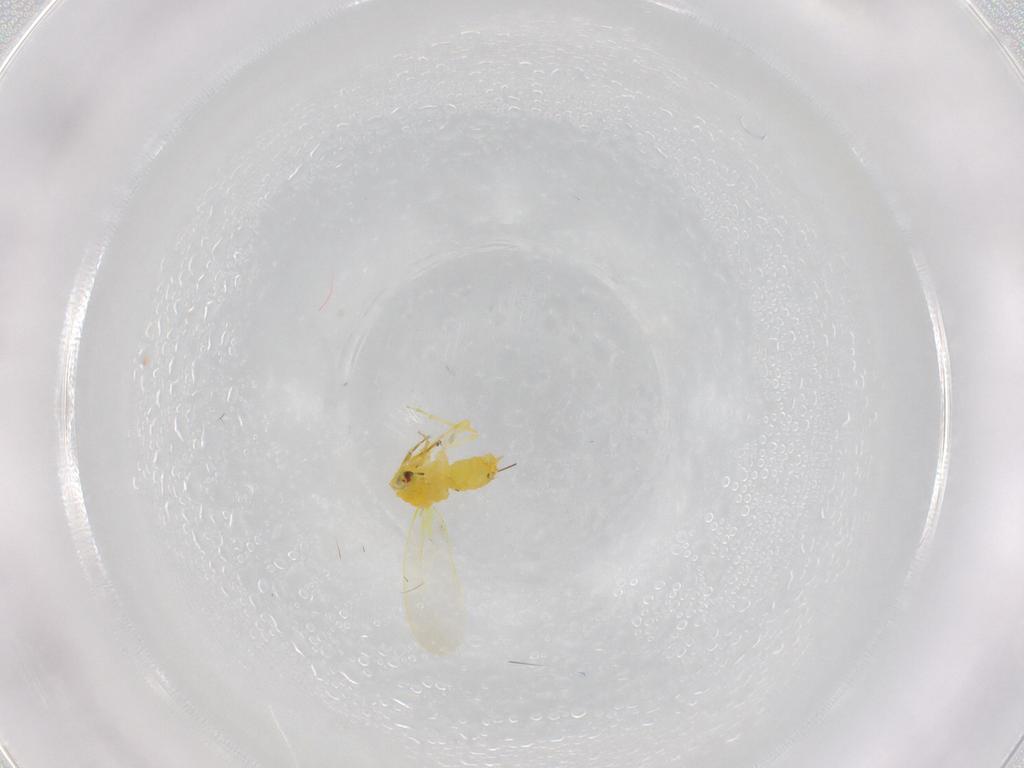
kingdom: Animalia
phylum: Arthropoda
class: Insecta
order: Hemiptera
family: Aleyrodidae
